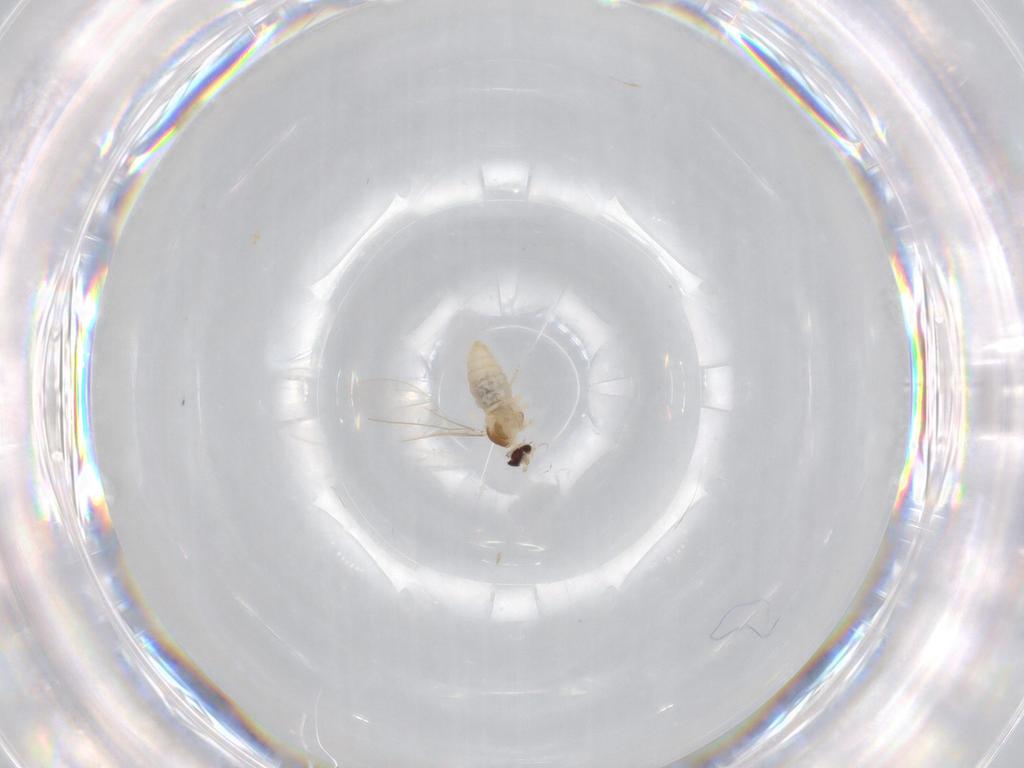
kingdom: Animalia
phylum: Arthropoda
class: Insecta
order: Diptera
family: Cecidomyiidae
